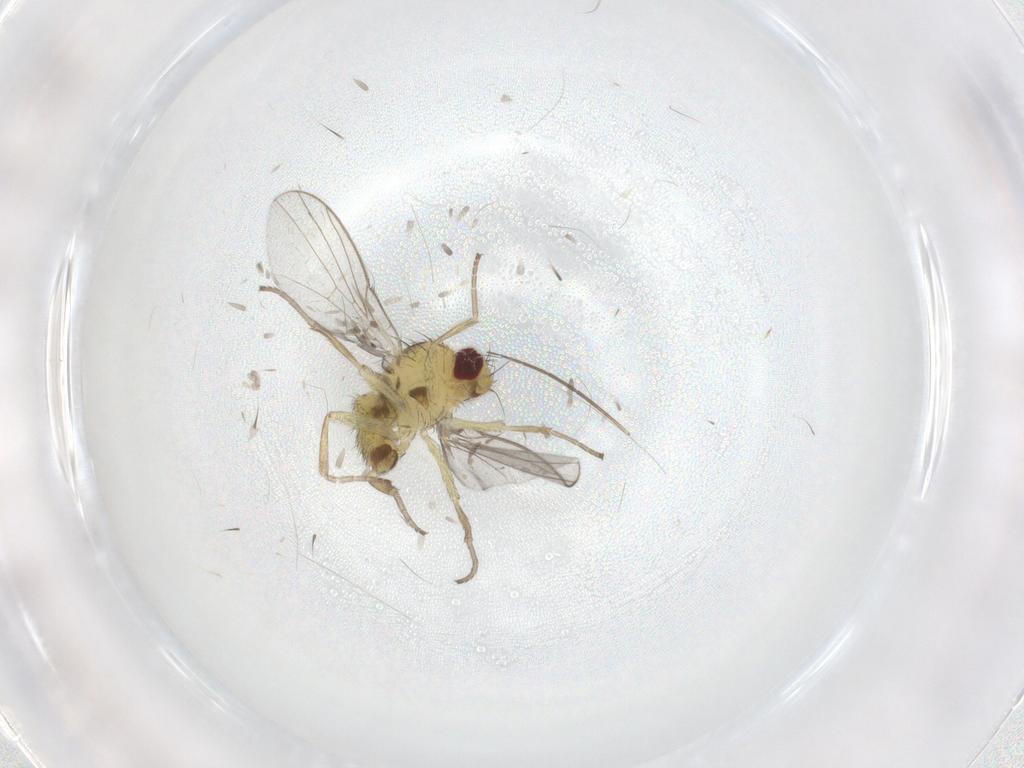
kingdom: Animalia
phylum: Arthropoda
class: Insecta
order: Diptera
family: Agromyzidae
